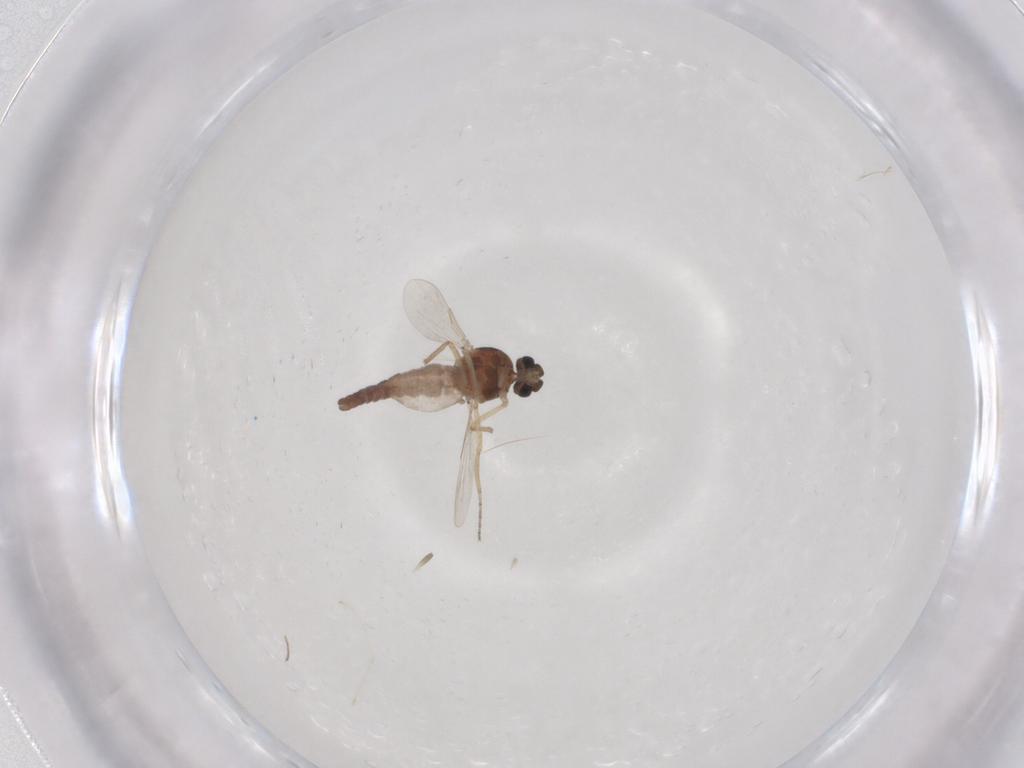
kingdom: Animalia
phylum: Arthropoda
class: Insecta
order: Diptera
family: Ceratopogonidae
